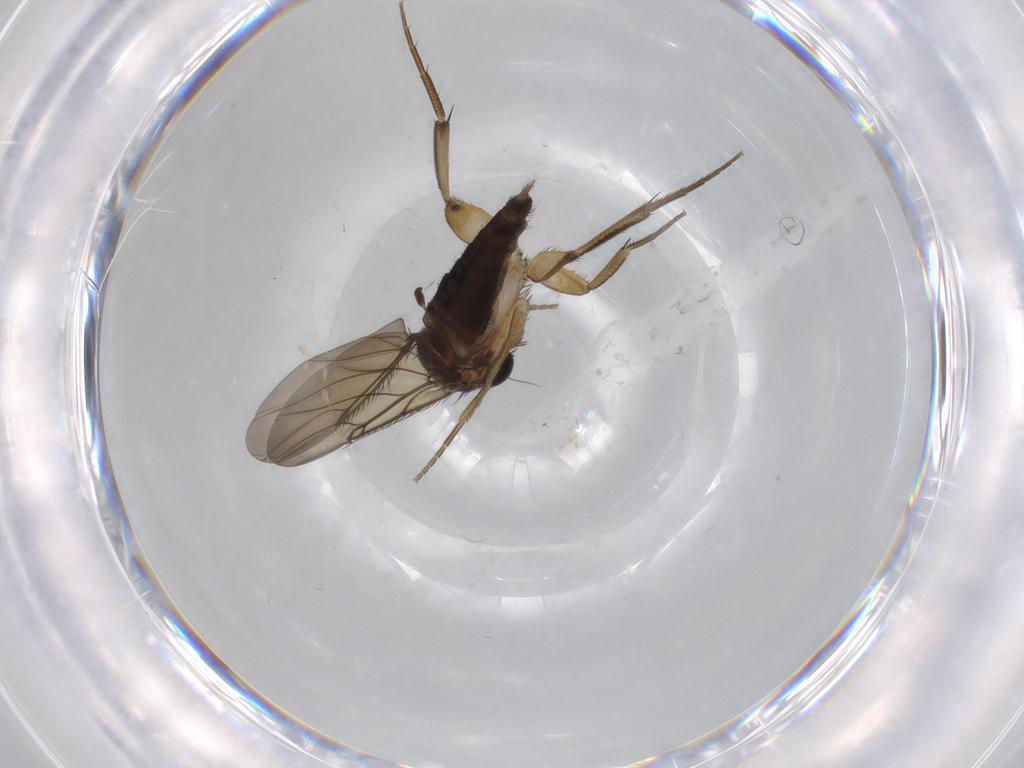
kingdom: Animalia
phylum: Arthropoda
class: Insecta
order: Diptera
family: Phoridae
